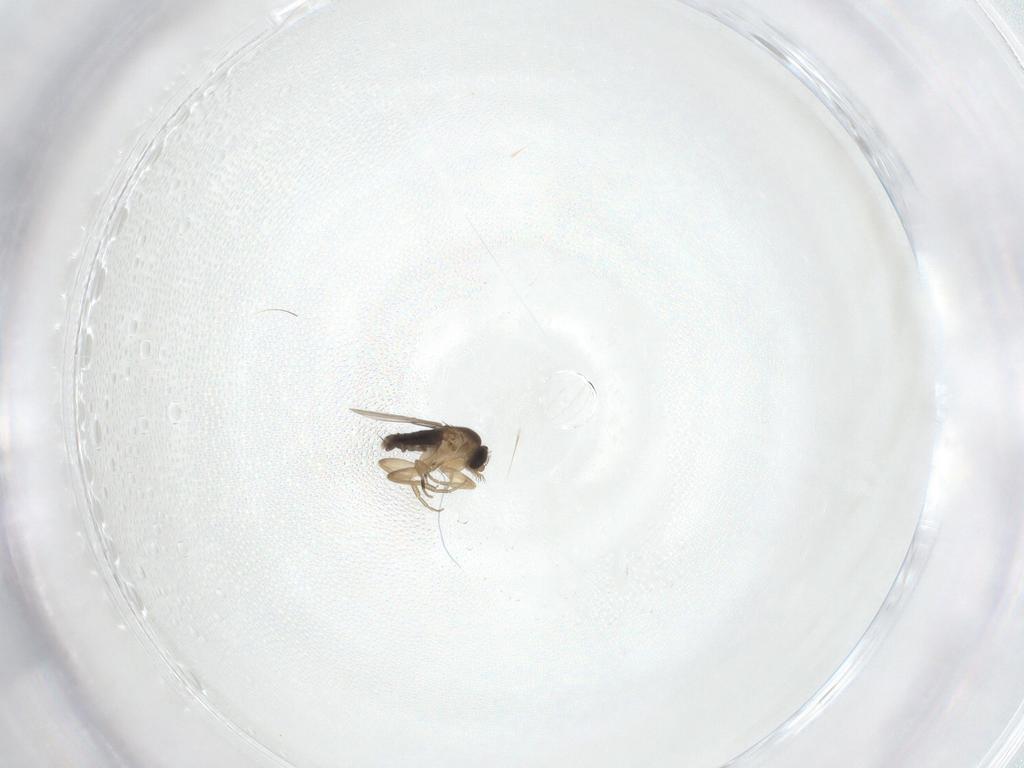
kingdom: Animalia
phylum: Arthropoda
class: Insecta
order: Diptera
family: Phoridae
